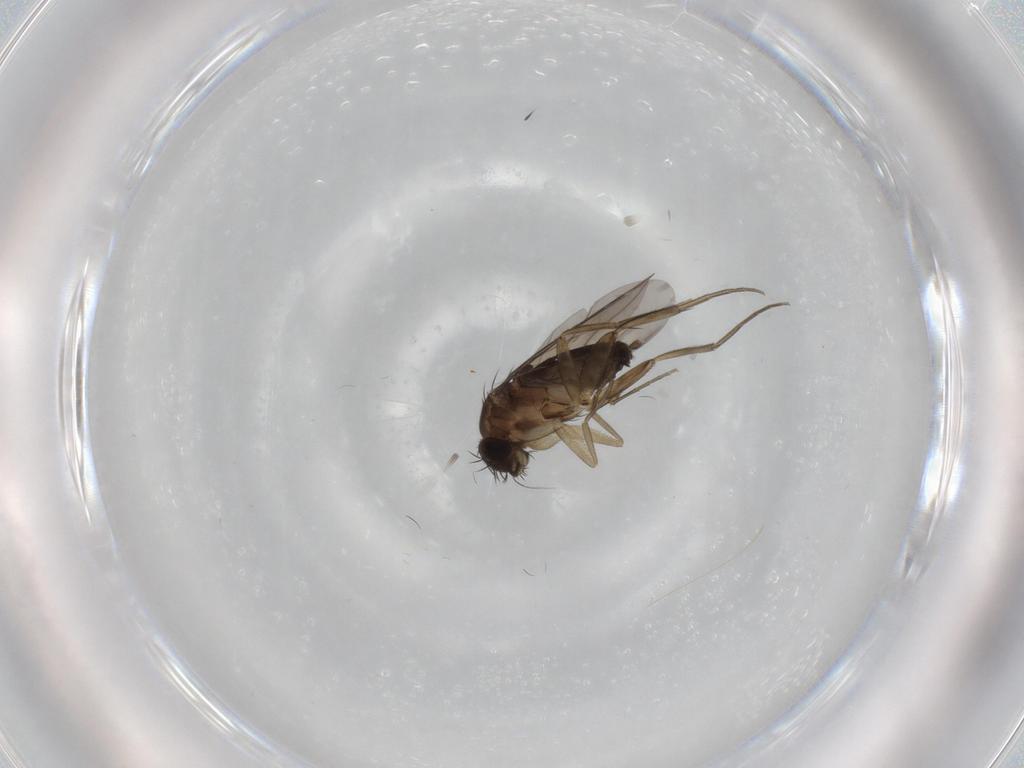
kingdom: Animalia
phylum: Arthropoda
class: Insecta
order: Diptera
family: Phoridae
